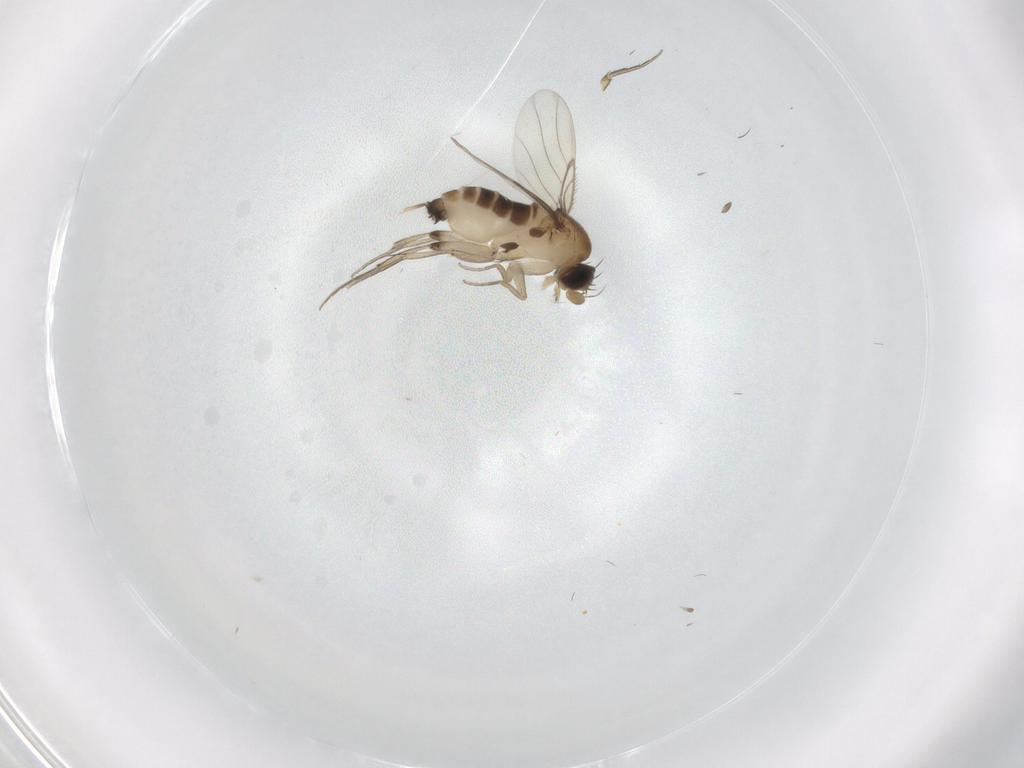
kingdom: Animalia
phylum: Arthropoda
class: Insecta
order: Diptera
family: Phoridae
